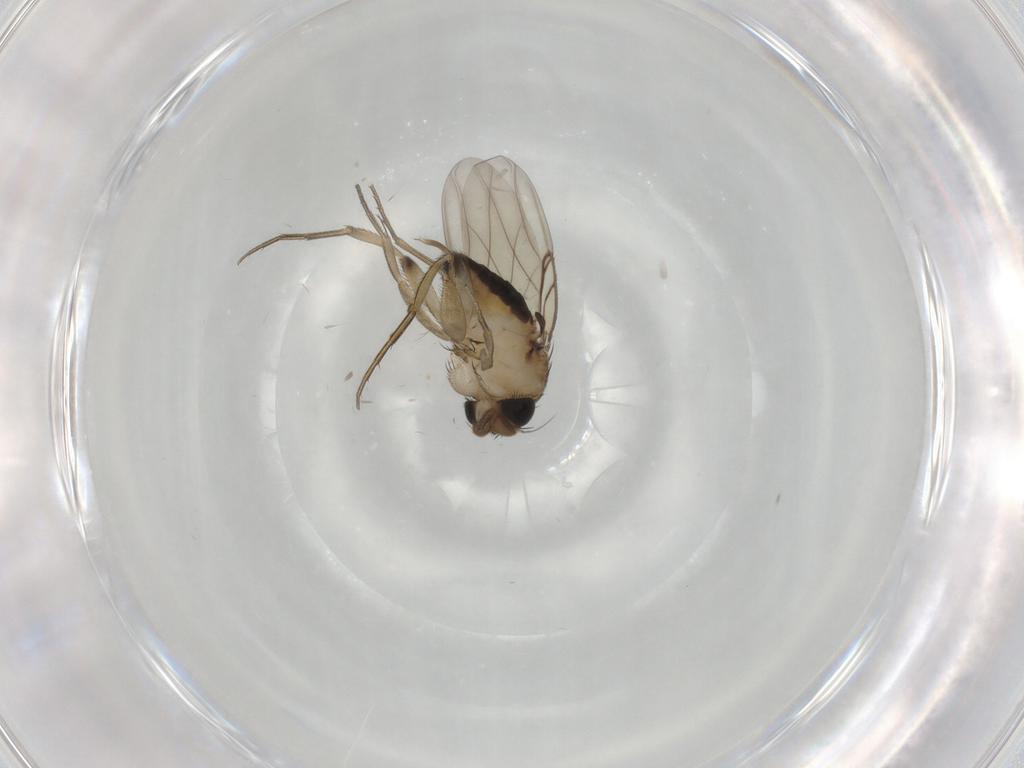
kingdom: Animalia
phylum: Arthropoda
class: Insecta
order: Diptera
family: Phoridae
